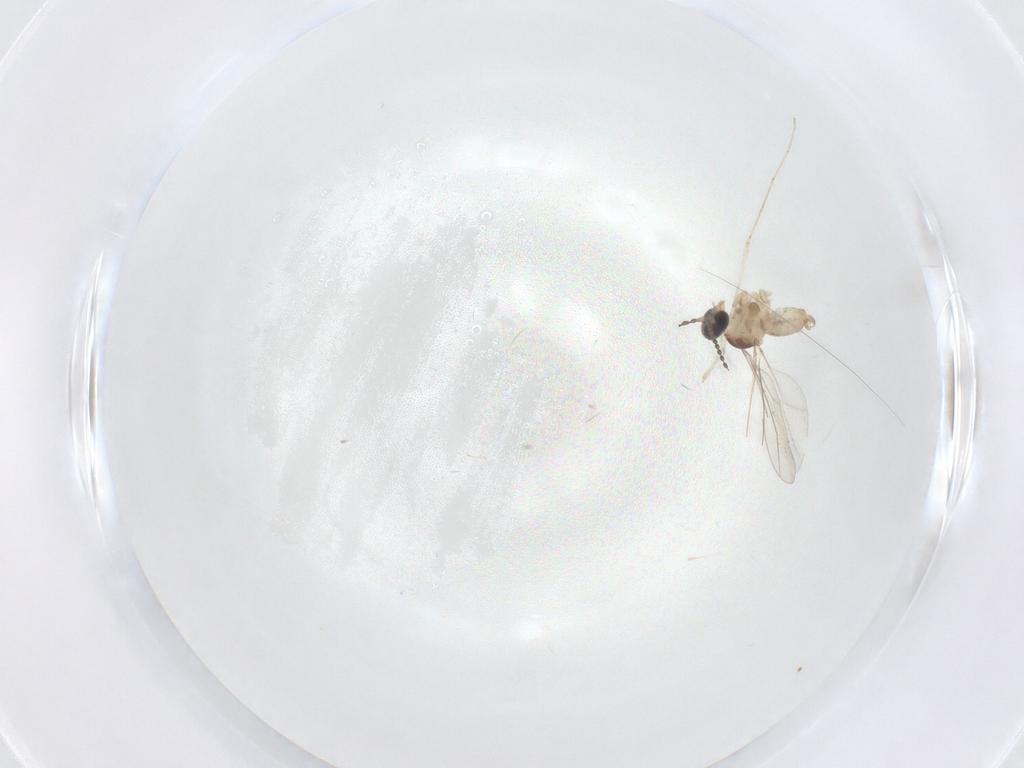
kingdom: Animalia
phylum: Arthropoda
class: Insecta
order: Diptera
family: Cecidomyiidae
